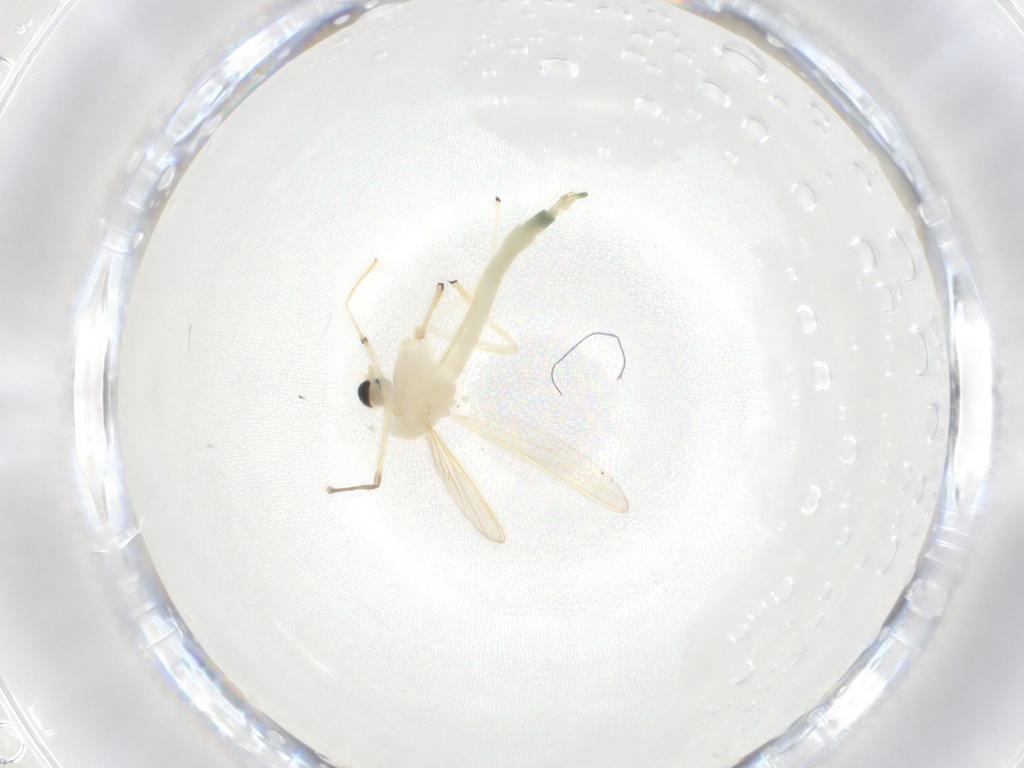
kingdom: Animalia
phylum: Arthropoda
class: Insecta
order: Diptera
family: Chironomidae
